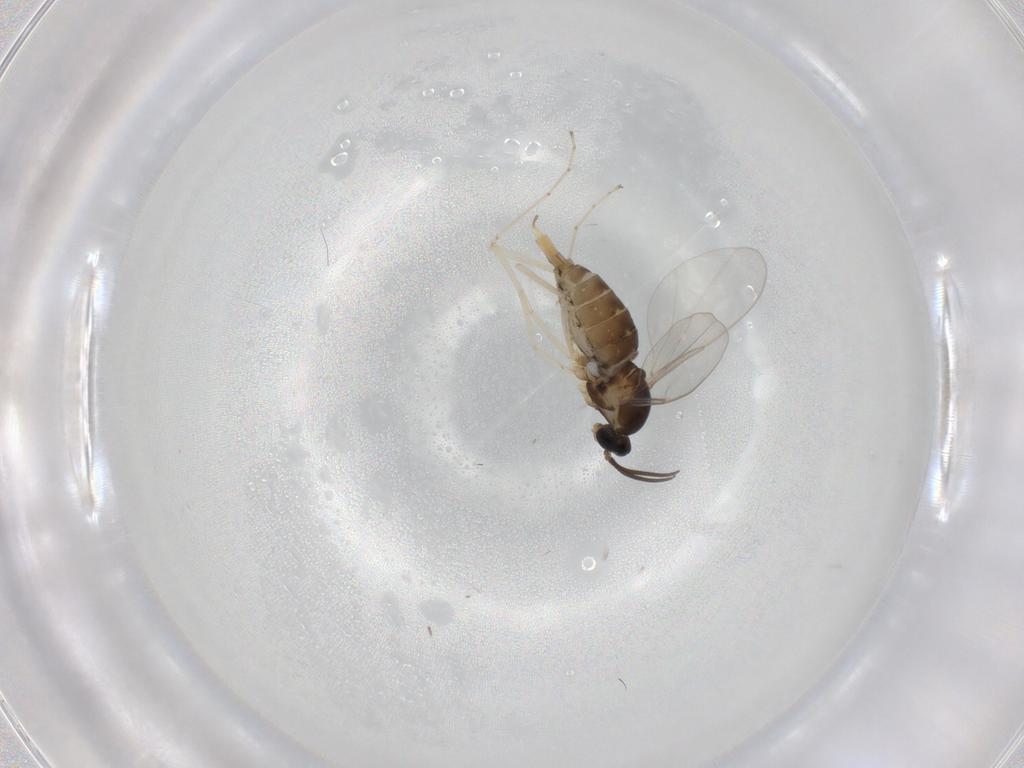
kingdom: Animalia
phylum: Arthropoda
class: Insecta
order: Diptera
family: Cecidomyiidae
